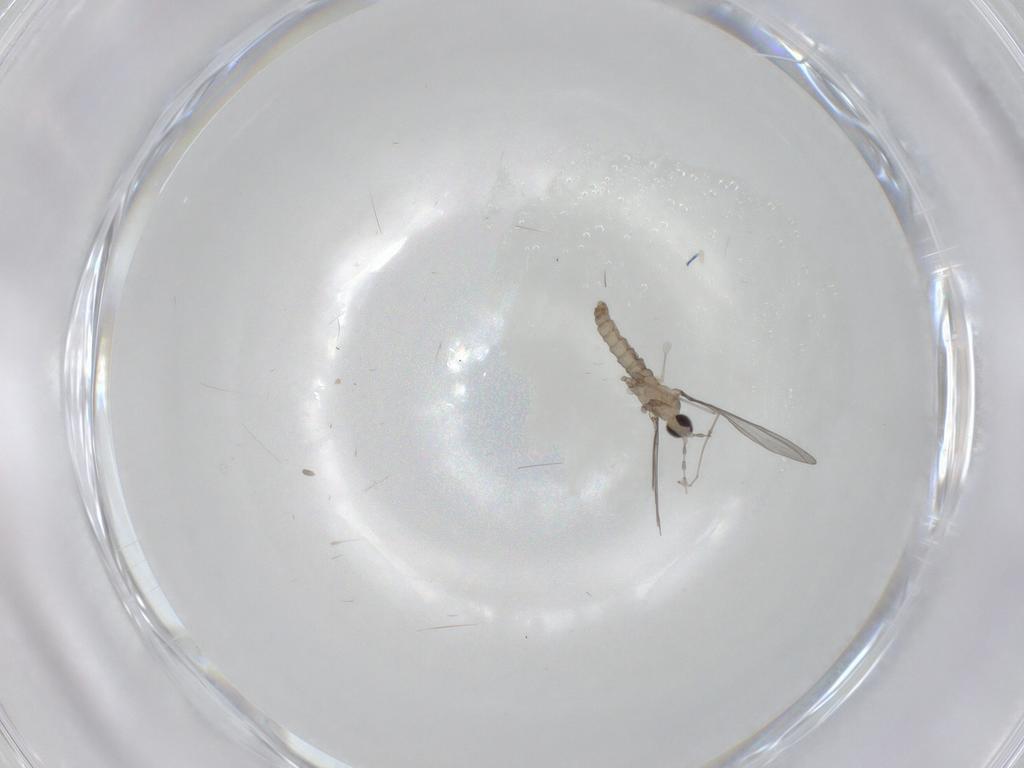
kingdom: Animalia
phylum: Arthropoda
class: Insecta
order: Diptera
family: Cecidomyiidae
